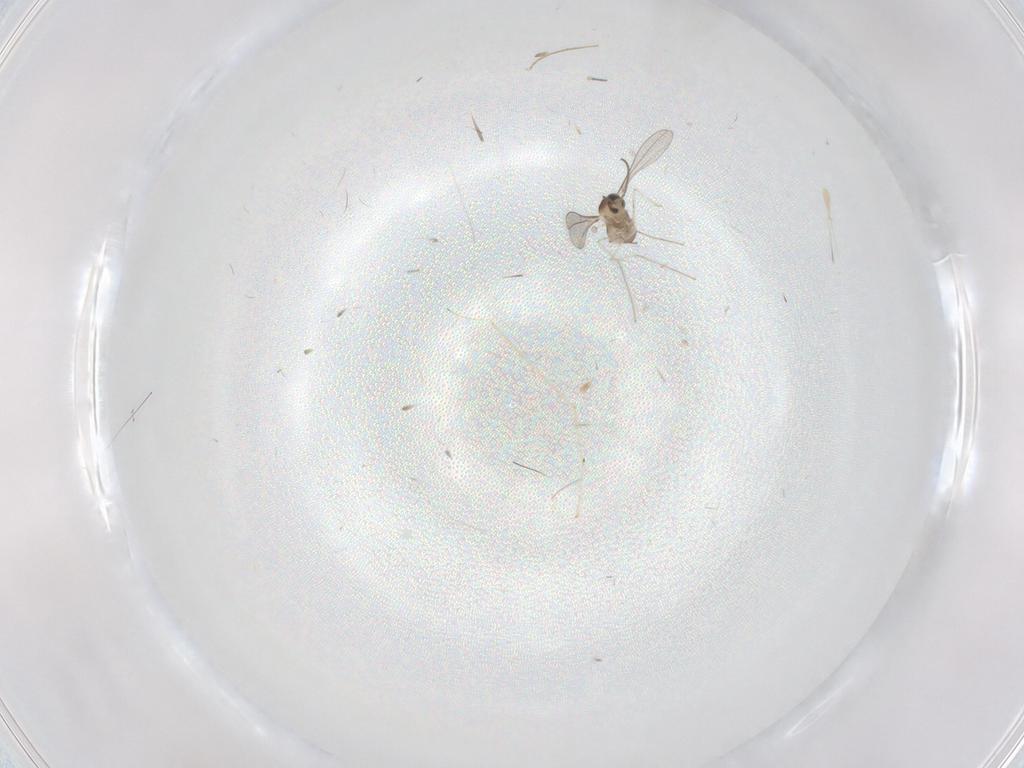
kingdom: Animalia
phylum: Arthropoda
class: Insecta
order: Diptera
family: Cecidomyiidae
